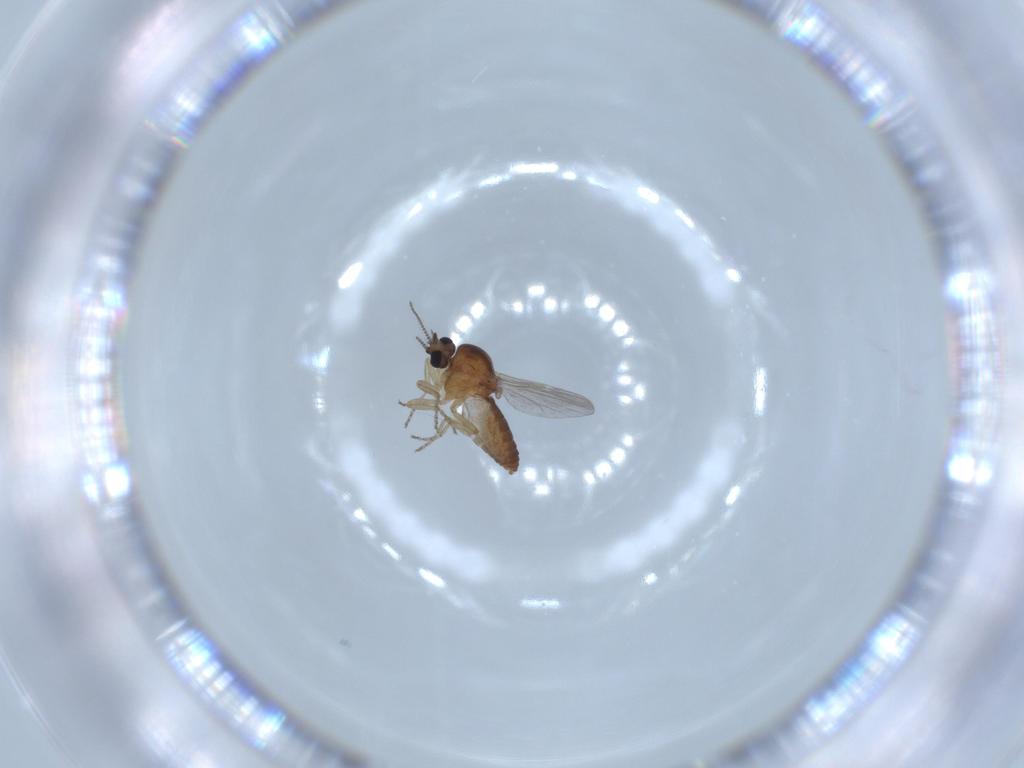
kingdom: Animalia
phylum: Arthropoda
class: Insecta
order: Diptera
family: Ceratopogonidae
